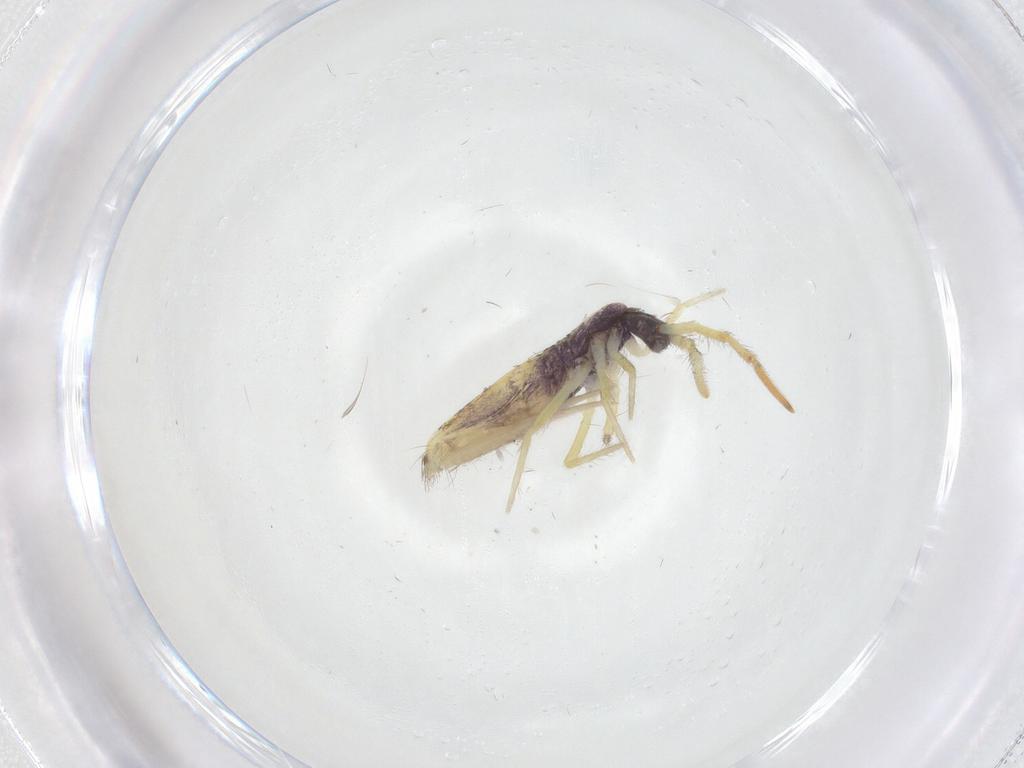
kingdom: Animalia
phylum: Arthropoda
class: Collembola
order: Entomobryomorpha
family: Entomobryidae
